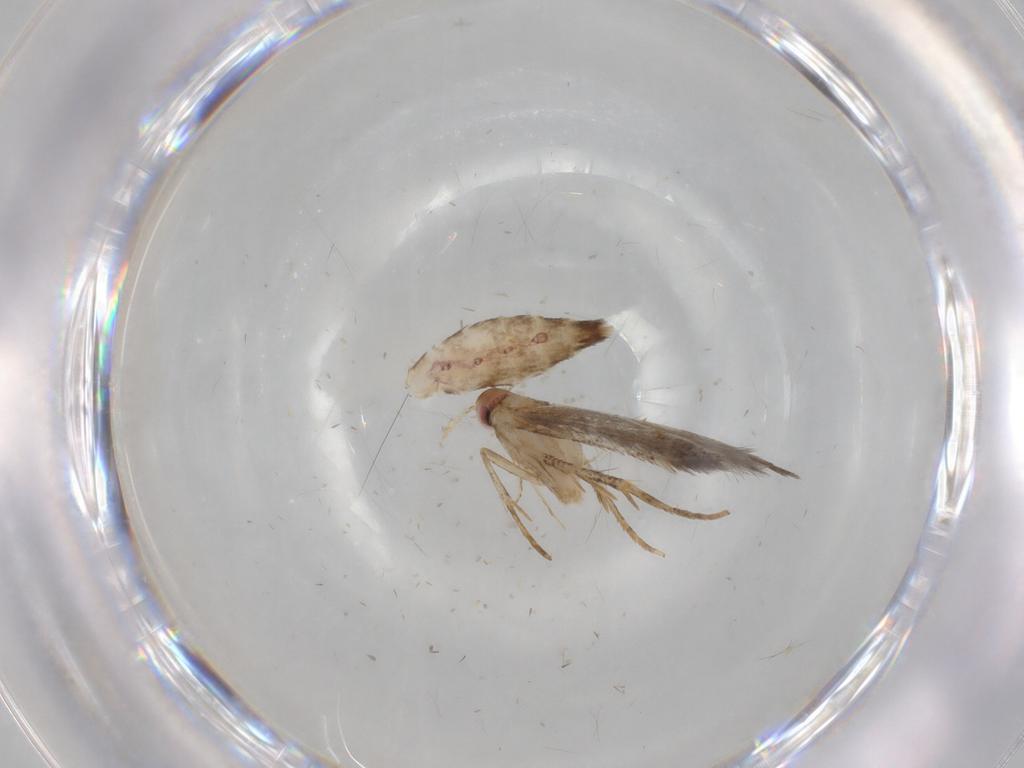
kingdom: Animalia
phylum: Arthropoda
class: Insecta
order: Lepidoptera
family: Cosmopterigidae
